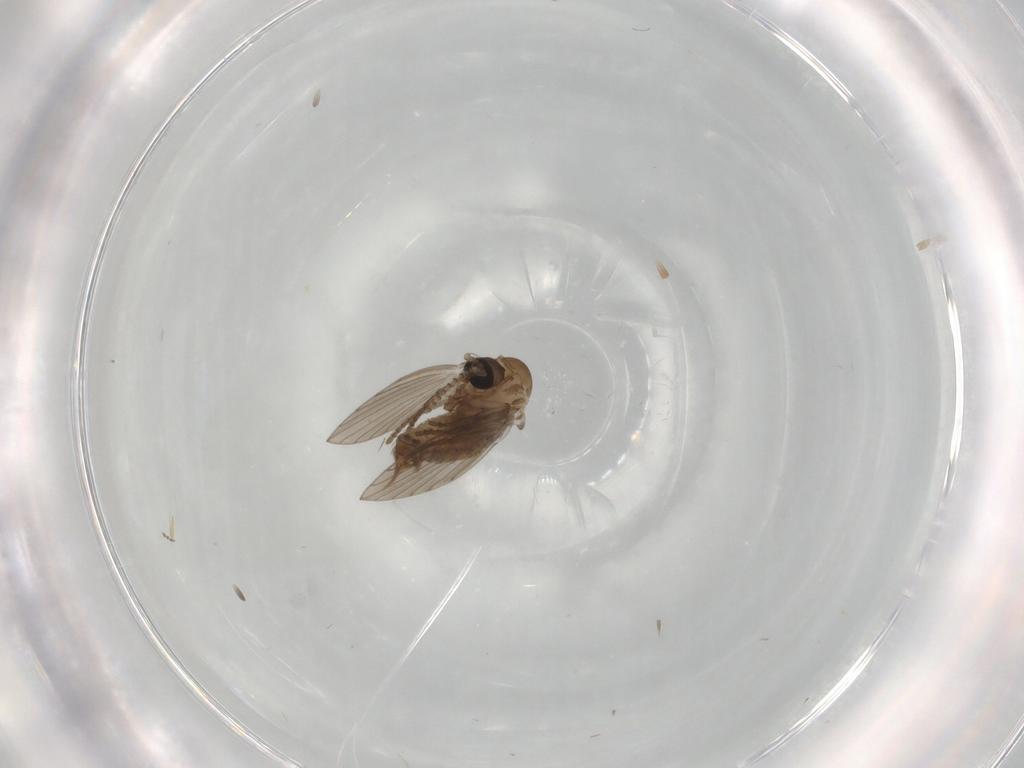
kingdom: Animalia
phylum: Arthropoda
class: Insecta
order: Diptera
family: Psychodidae
